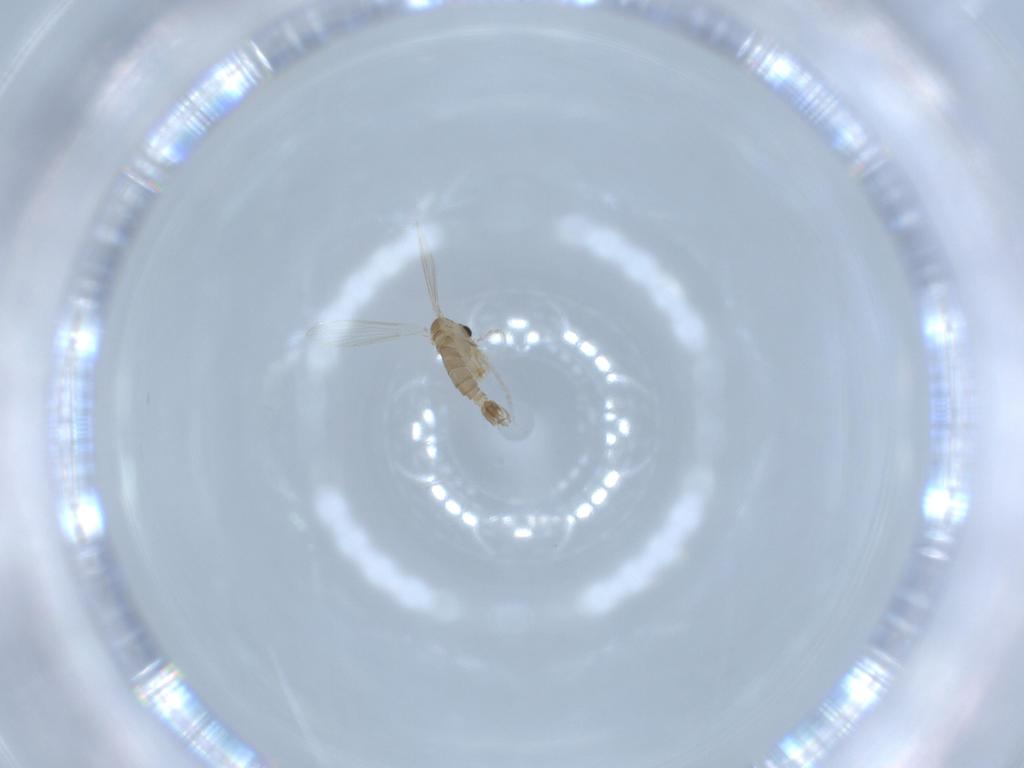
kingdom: Animalia
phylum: Arthropoda
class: Insecta
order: Diptera
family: Psychodidae
